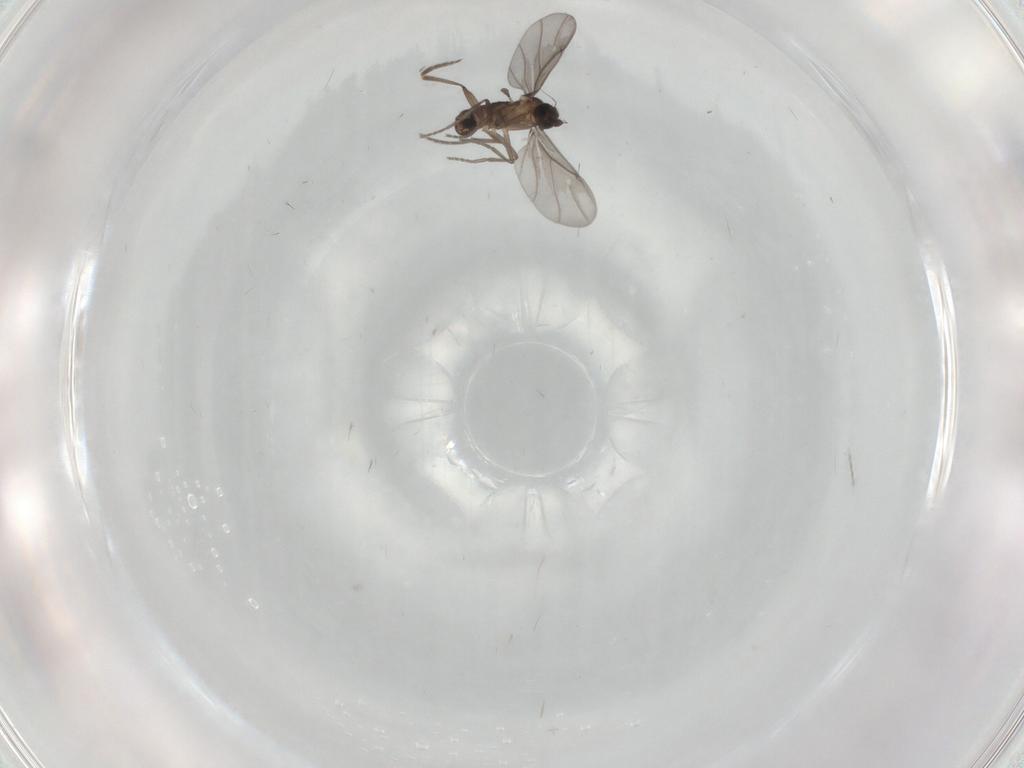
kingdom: Animalia
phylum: Arthropoda
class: Insecta
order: Diptera
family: Phoridae
